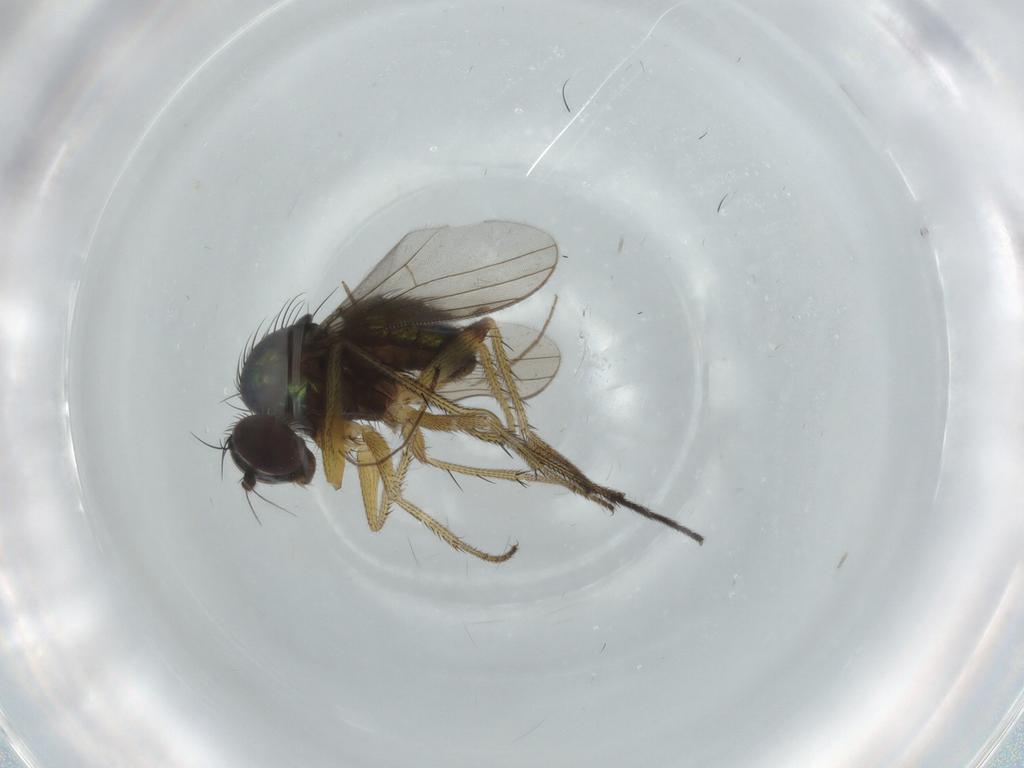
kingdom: Animalia
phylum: Arthropoda
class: Insecta
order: Diptera
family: Dolichopodidae
